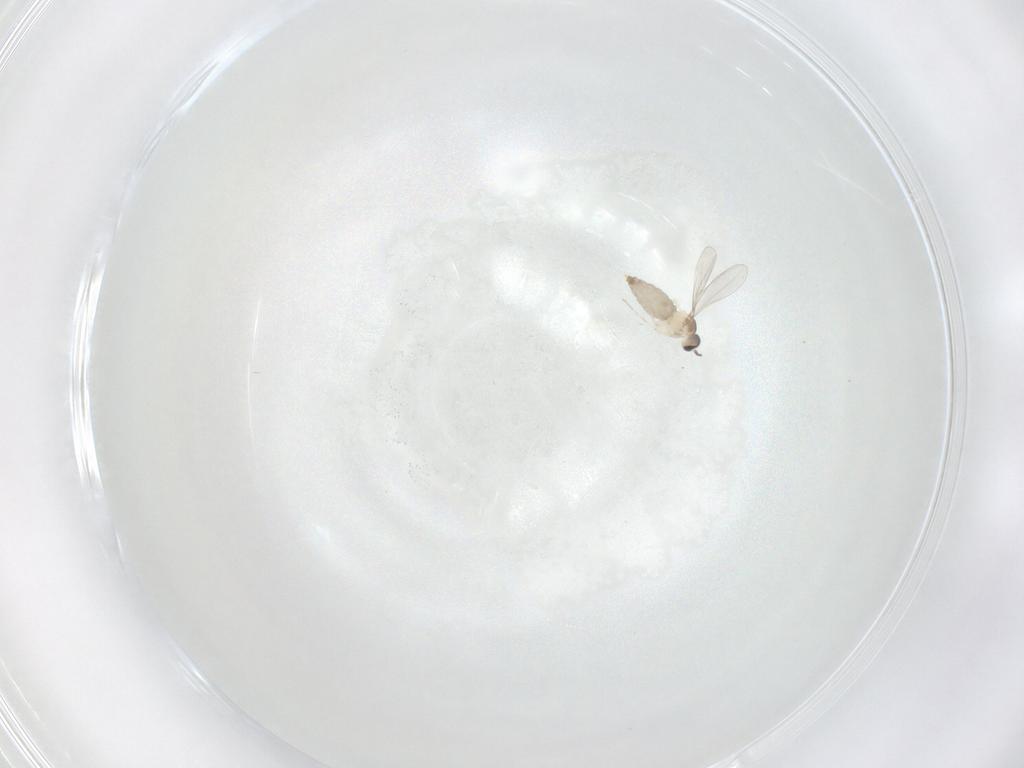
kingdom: Animalia
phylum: Arthropoda
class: Insecta
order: Diptera
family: Cecidomyiidae
